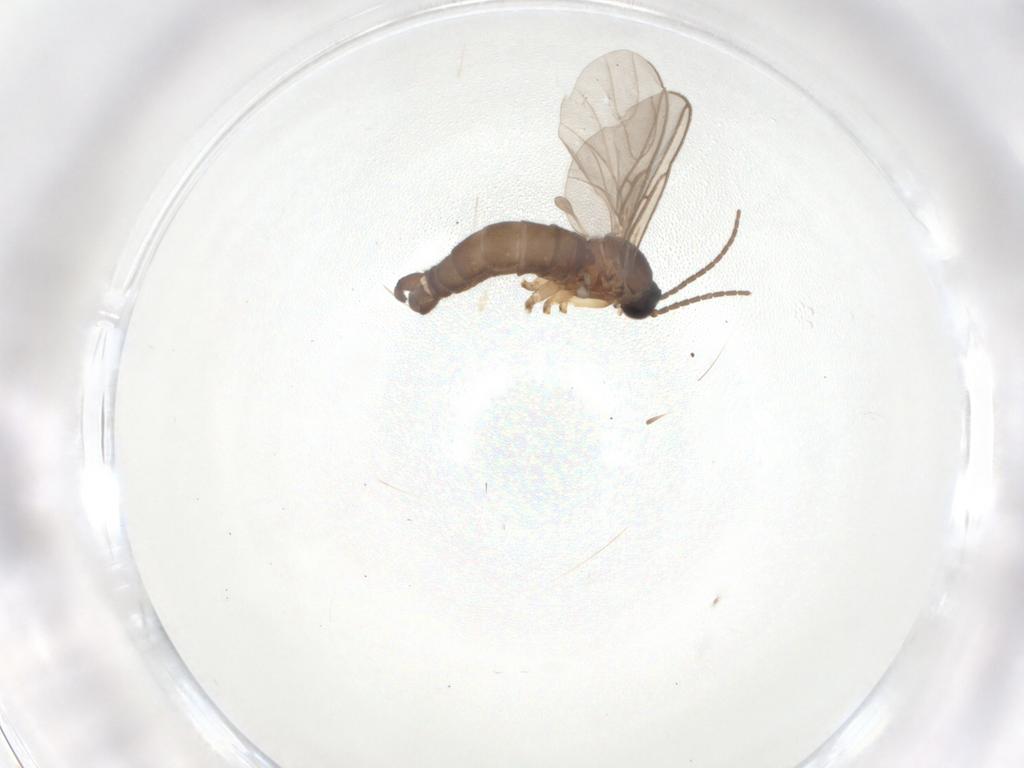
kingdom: Animalia
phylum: Arthropoda
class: Insecta
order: Diptera
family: Sciaridae
